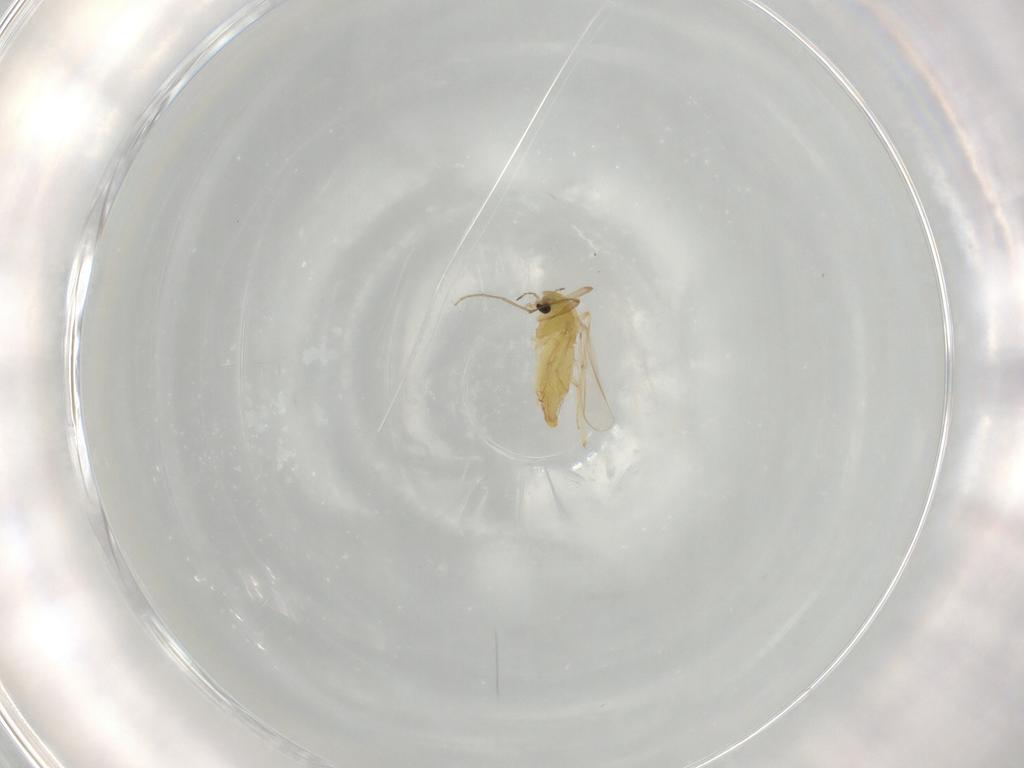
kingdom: Animalia
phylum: Arthropoda
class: Insecta
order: Diptera
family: Chironomidae
